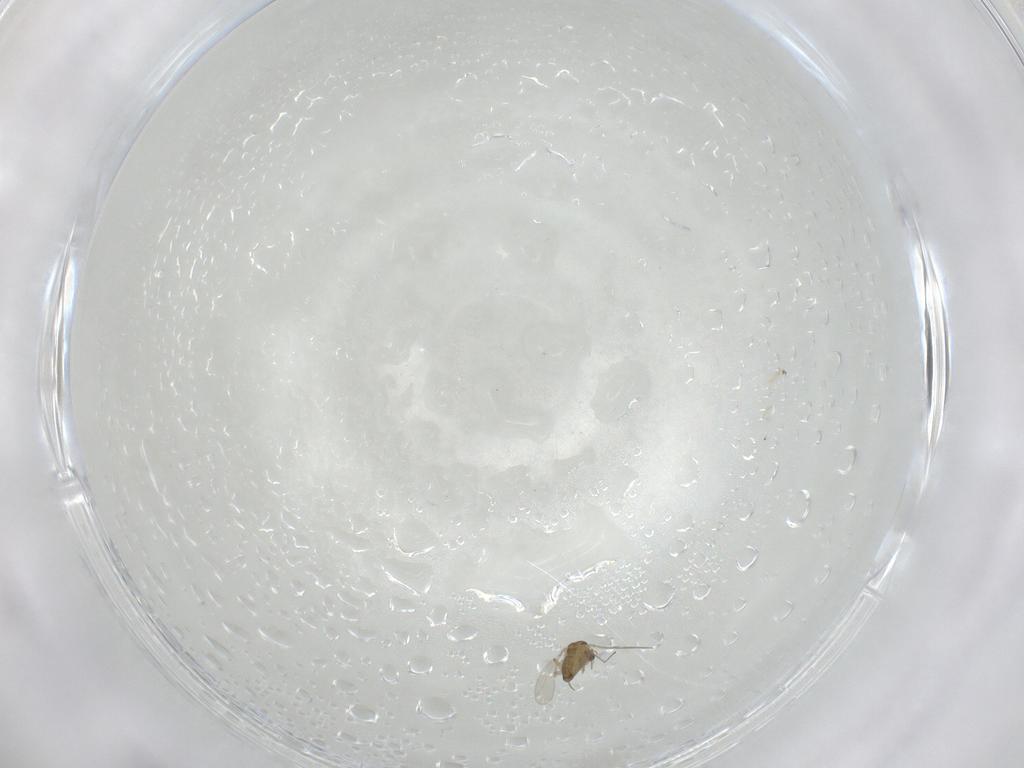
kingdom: Animalia
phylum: Arthropoda
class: Insecta
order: Diptera
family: Chironomidae
